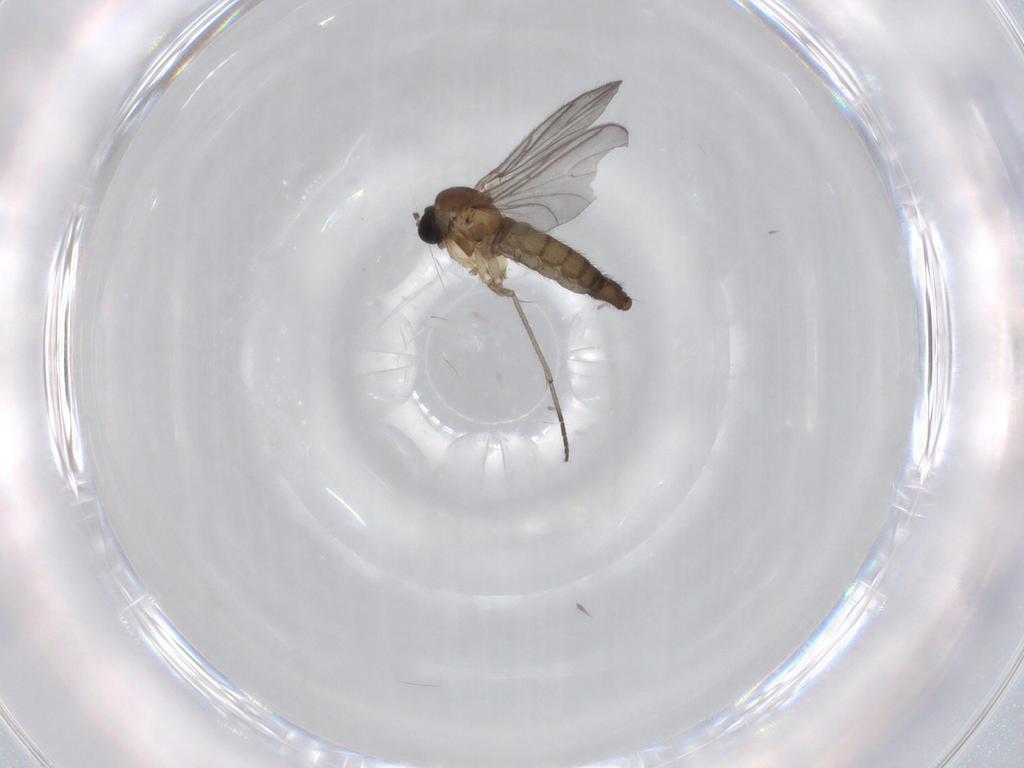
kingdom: Animalia
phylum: Arthropoda
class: Insecta
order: Diptera
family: Sciaridae
